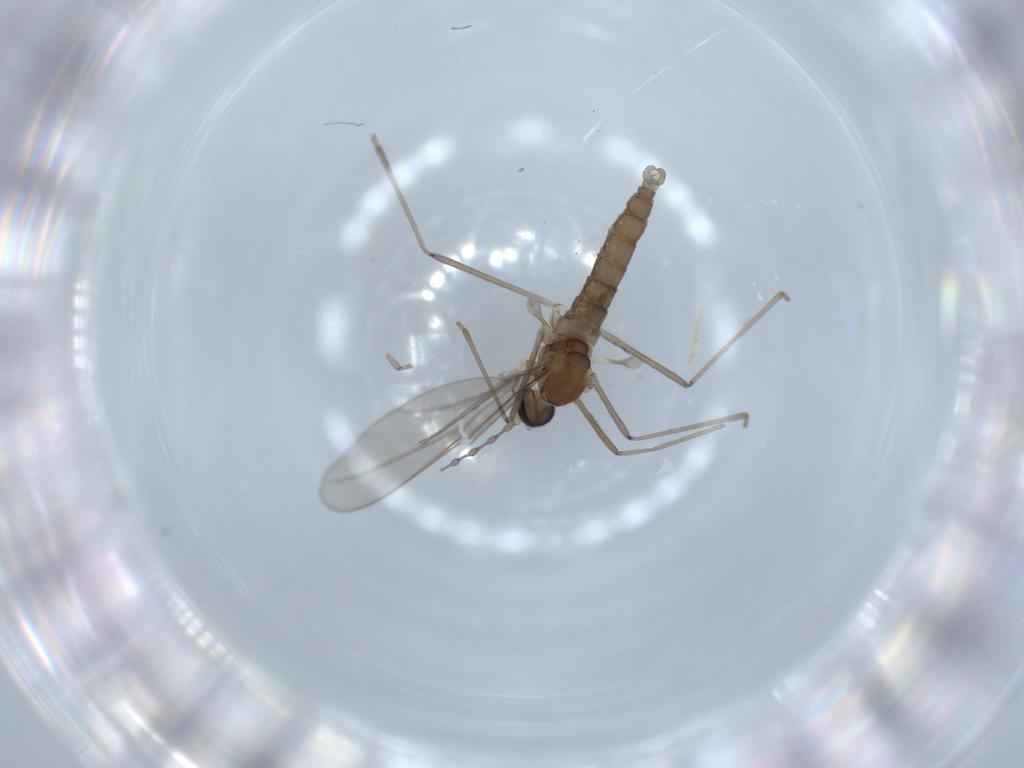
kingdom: Animalia
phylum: Arthropoda
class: Insecta
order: Diptera
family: Cecidomyiidae
